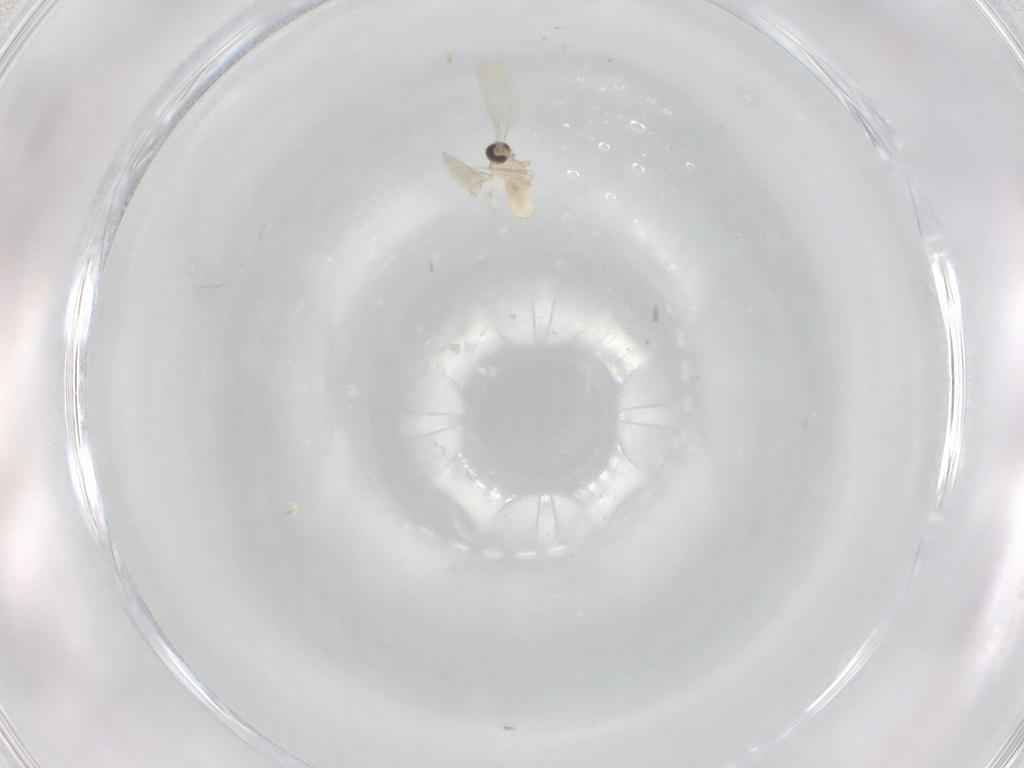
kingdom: Animalia
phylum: Arthropoda
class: Insecta
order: Diptera
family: Cecidomyiidae
